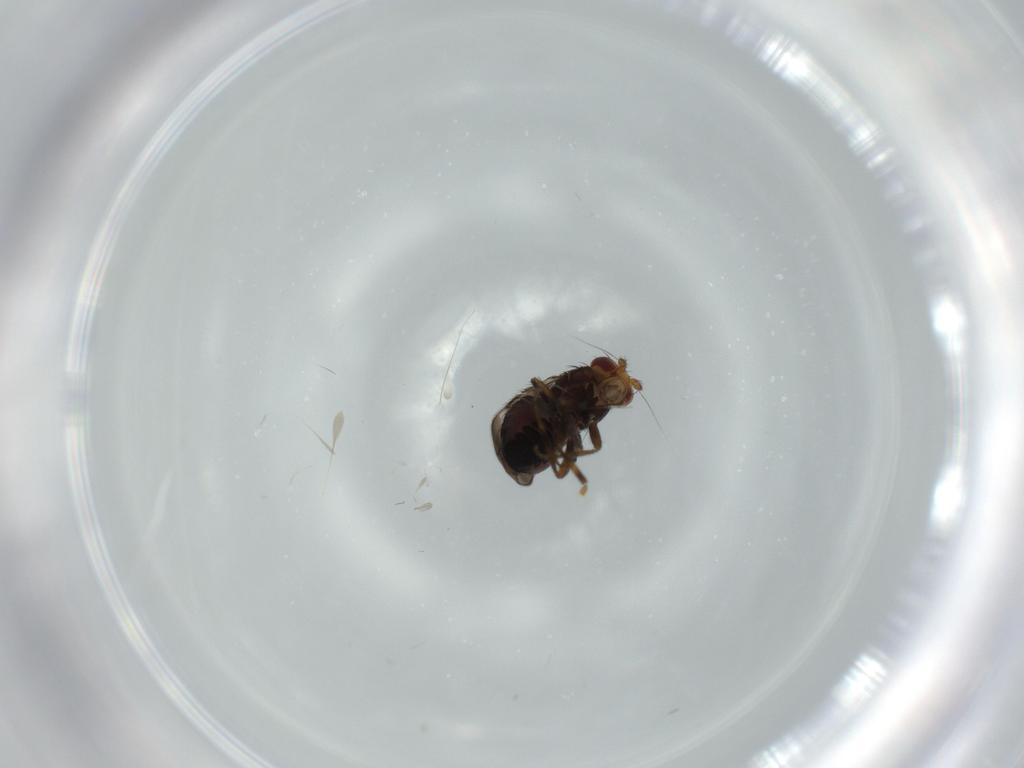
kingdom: Animalia
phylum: Arthropoda
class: Insecta
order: Diptera
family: Sphaeroceridae
